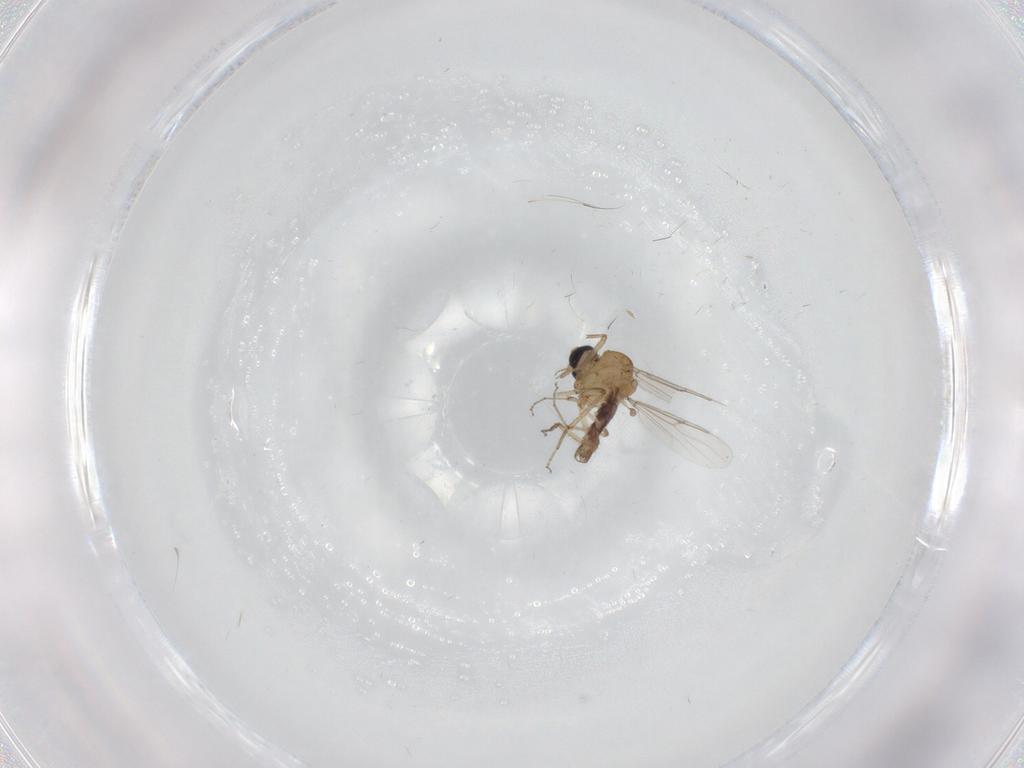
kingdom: Animalia
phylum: Arthropoda
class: Insecta
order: Diptera
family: Ceratopogonidae
